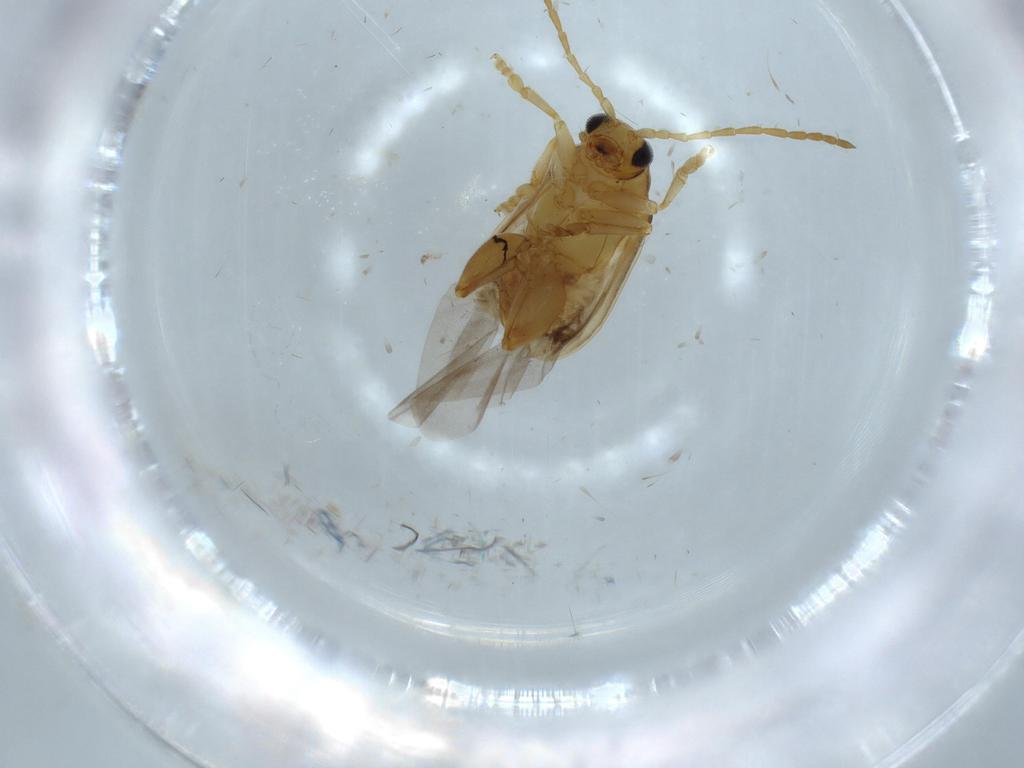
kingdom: Animalia
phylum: Arthropoda
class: Insecta
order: Coleoptera
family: Chrysomelidae
